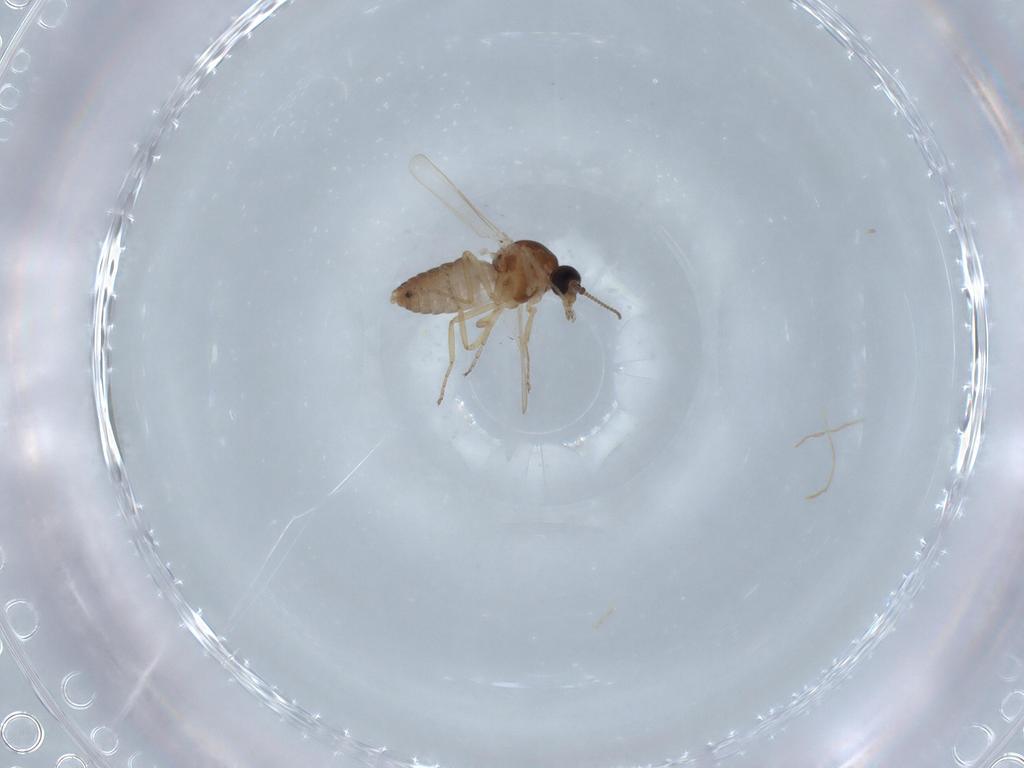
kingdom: Animalia
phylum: Arthropoda
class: Insecta
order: Diptera
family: Ceratopogonidae
